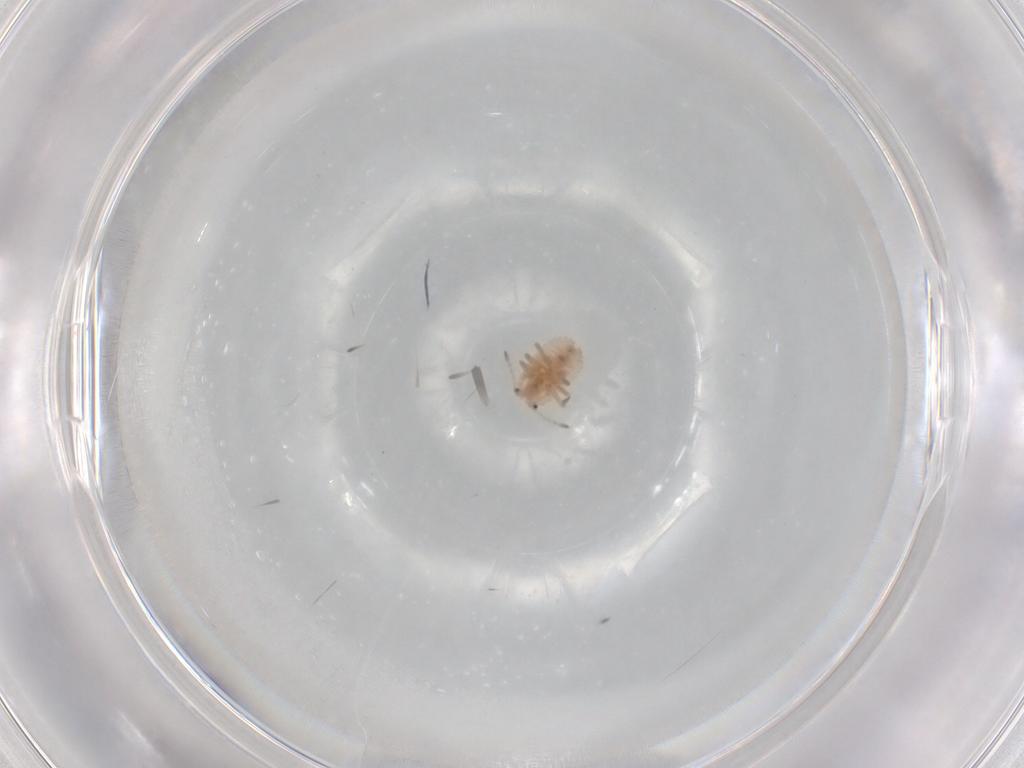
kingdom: Animalia
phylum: Arthropoda
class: Insecta
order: Hemiptera
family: Coccoidea_incertae_sedis
